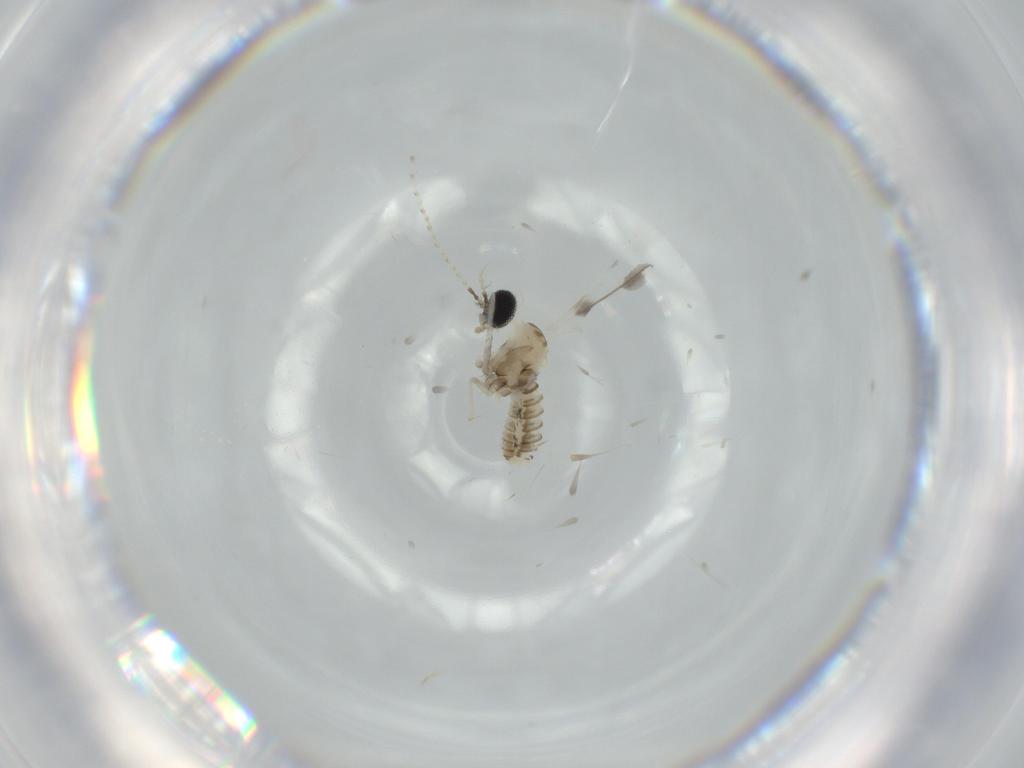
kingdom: Animalia
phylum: Arthropoda
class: Insecta
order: Diptera
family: Cecidomyiidae
